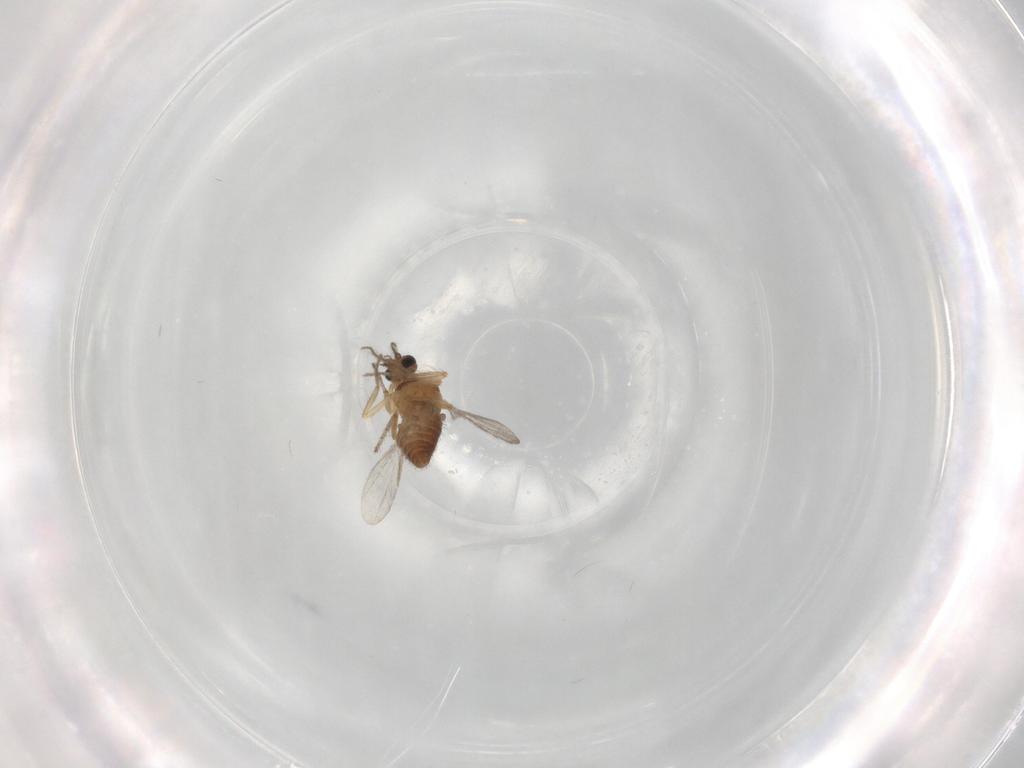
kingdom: Animalia
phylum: Arthropoda
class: Insecta
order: Diptera
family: Ceratopogonidae
